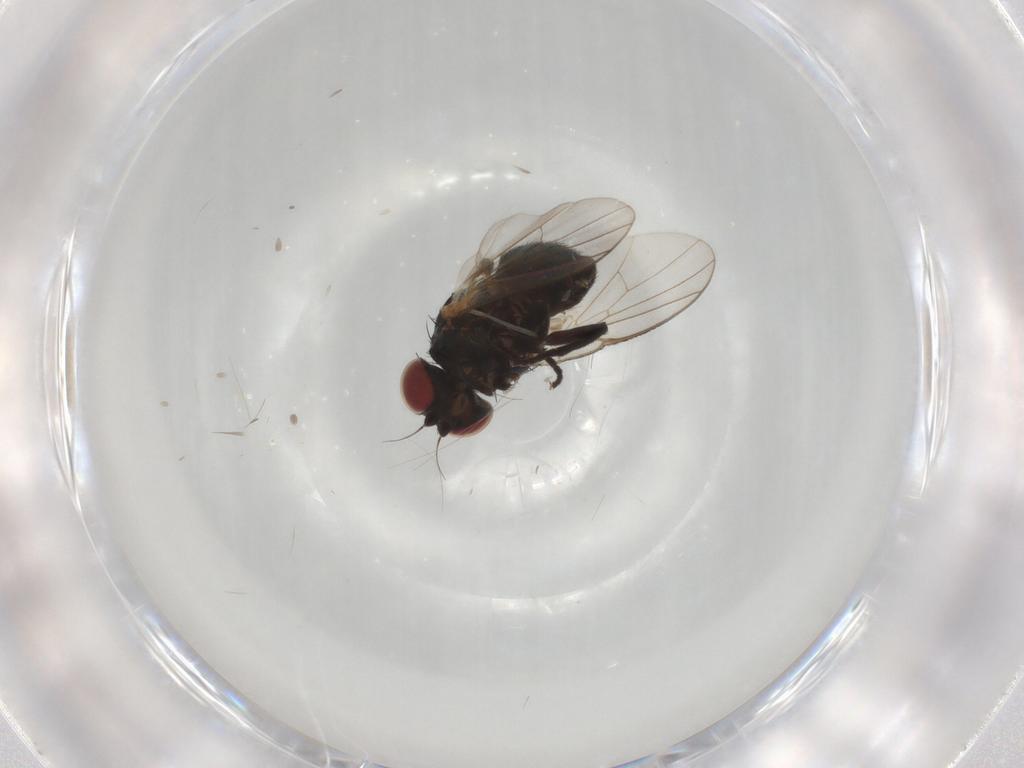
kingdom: Animalia
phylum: Arthropoda
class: Insecta
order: Diptera
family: Agromyzidae
